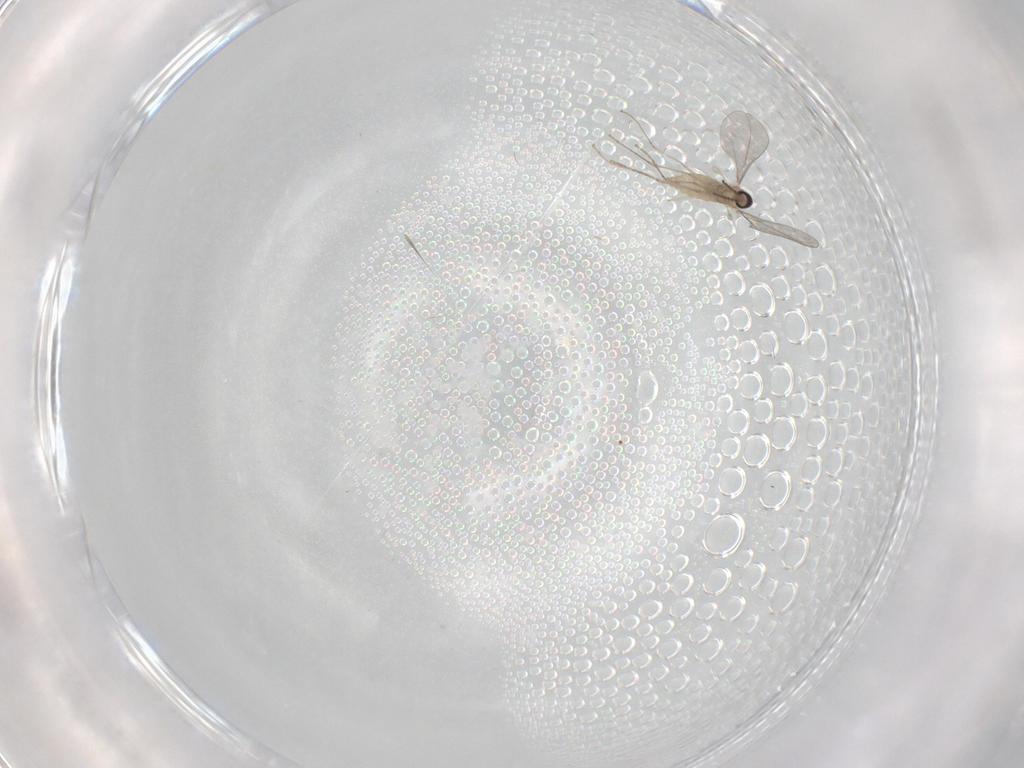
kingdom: Animalia
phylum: Arthropoda
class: Insecta
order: Diptera
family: Cecidomyiidae
